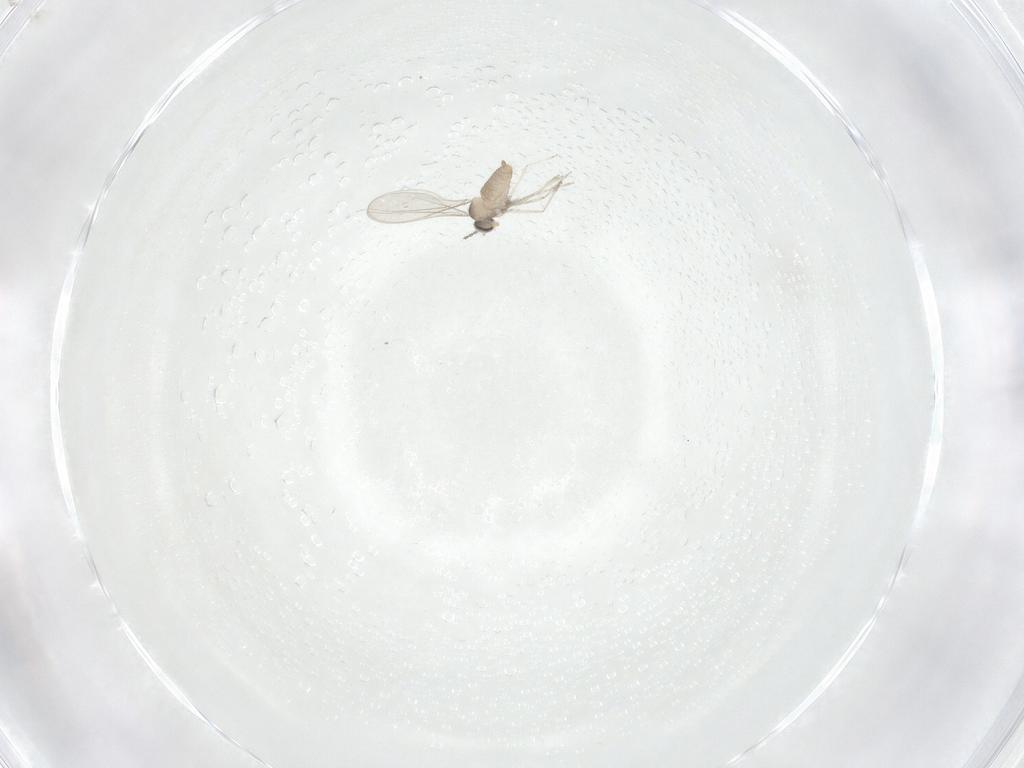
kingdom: Animalia
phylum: Arthropoda
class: Insecta
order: Diptera
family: Cecidomyiidae
